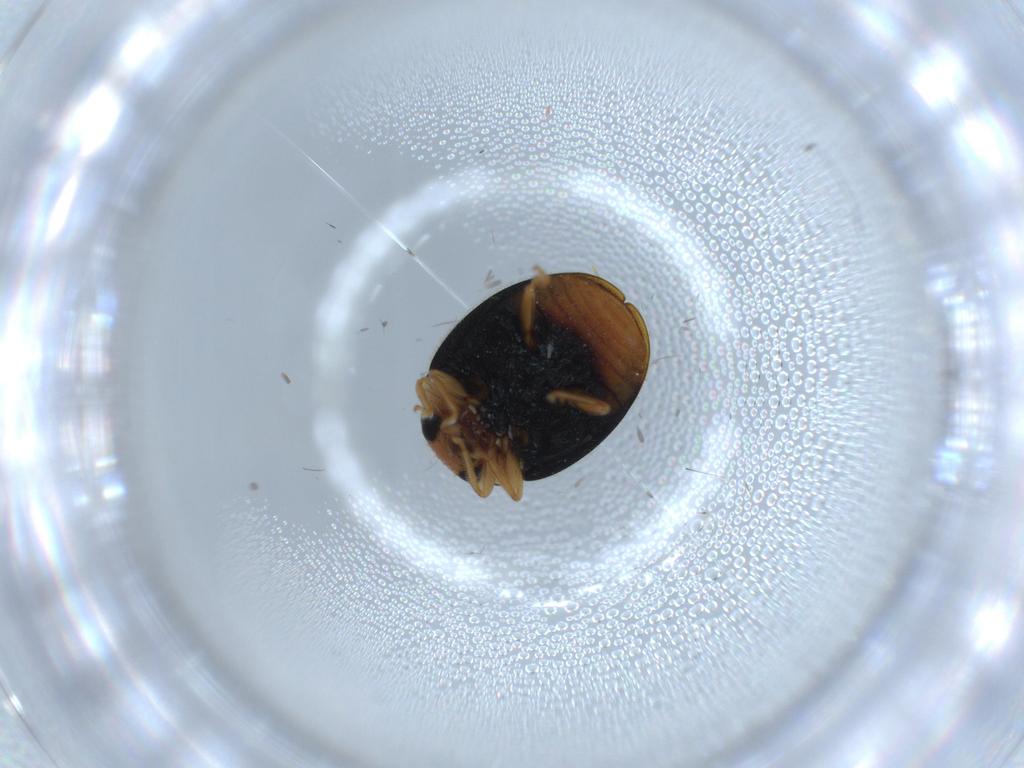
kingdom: Animalia
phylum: Arthropoda
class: Insecta
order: Coleoptera
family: Coccinellidae
